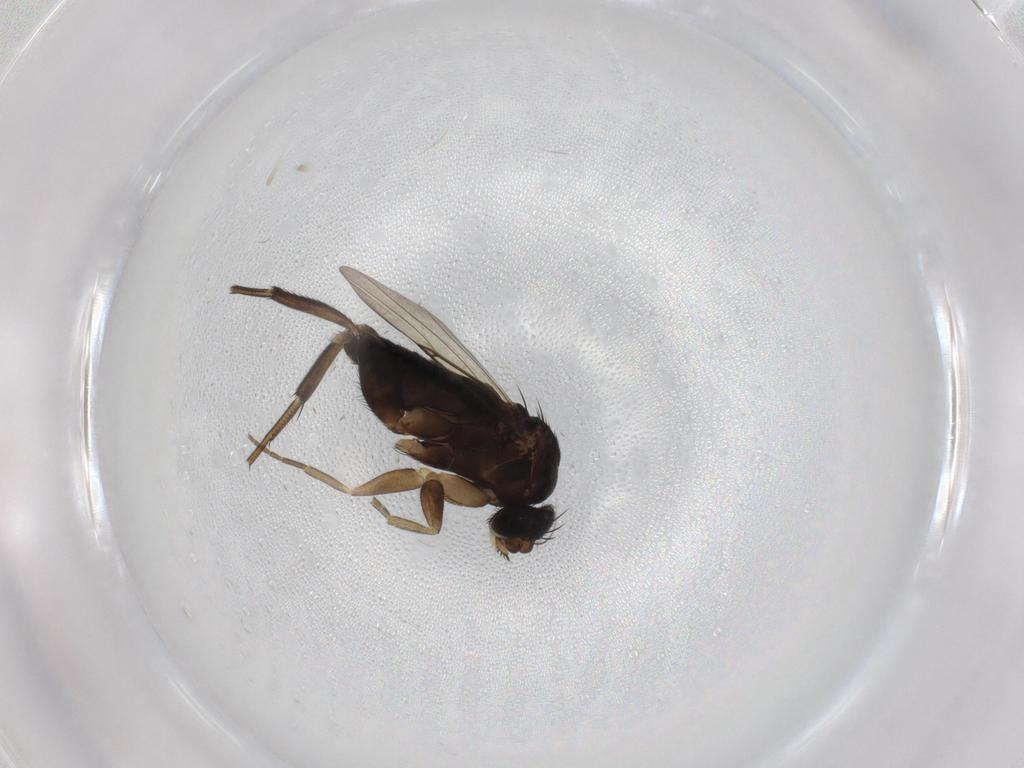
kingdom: Animalia
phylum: Arthropoda
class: Insecta
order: Diptera
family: Phoridae
